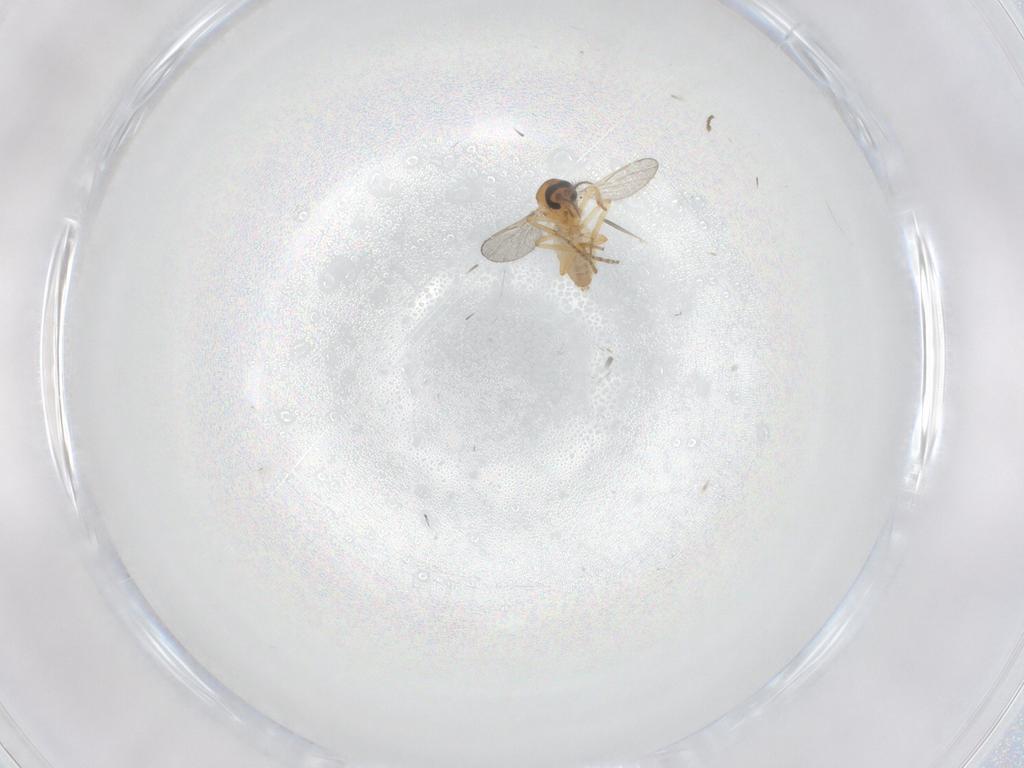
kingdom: Animalia
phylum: Arthropoda
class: Insecta
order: Diptera
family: Ceratopogonidae
